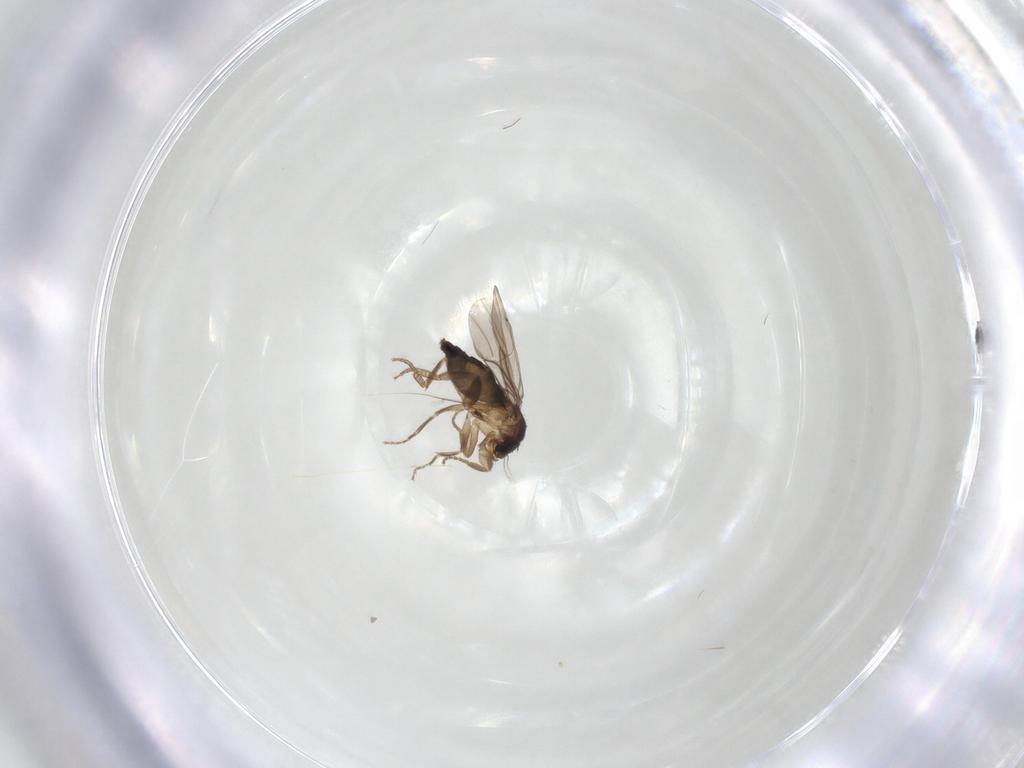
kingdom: Animalia
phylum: Arthropoda
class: Insecta
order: Diptera
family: Phoridae
